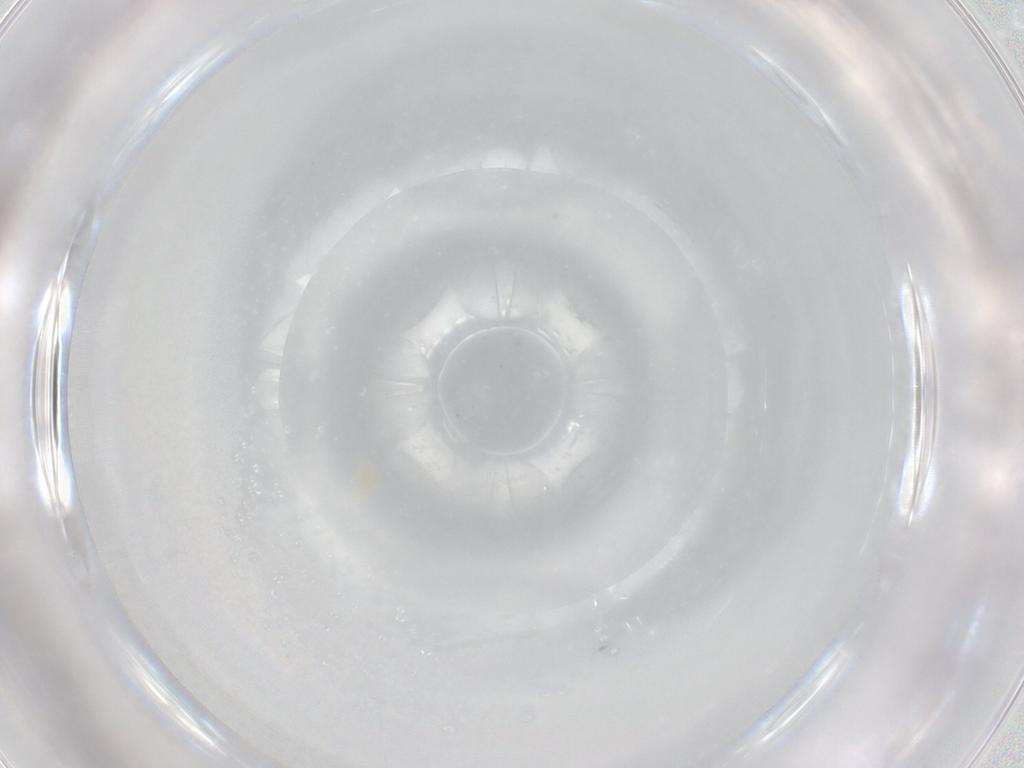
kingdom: Animalia
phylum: Arthropoda
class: Arachnida
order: Trombidiformes
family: Eupodidae
